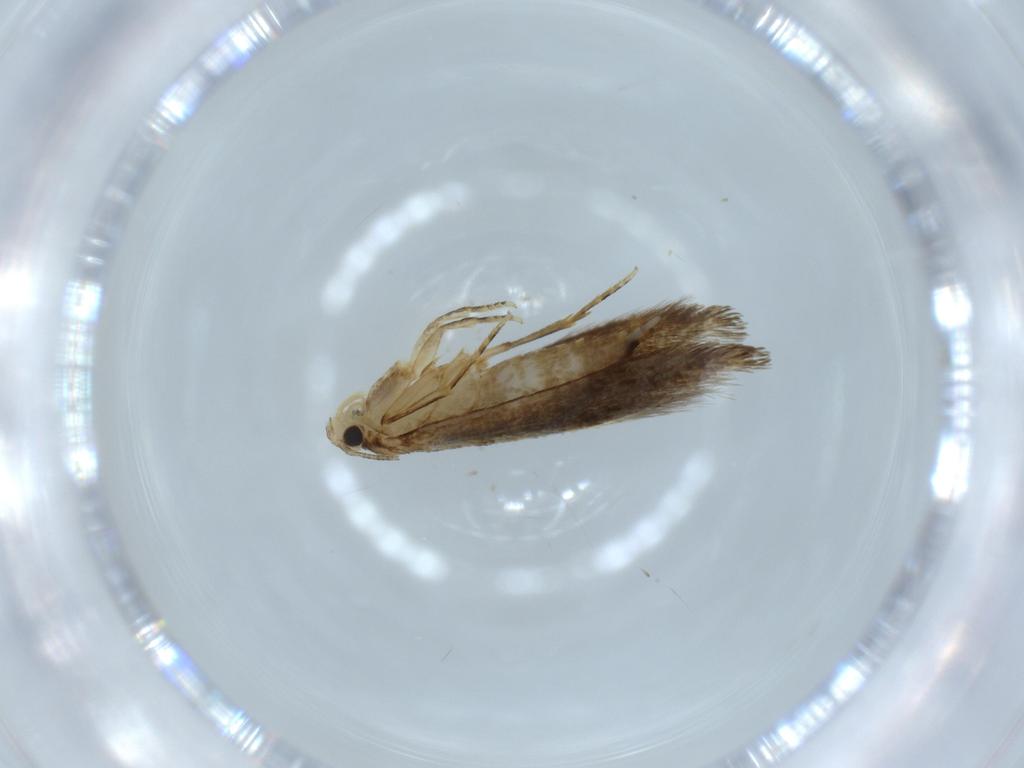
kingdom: Animalia
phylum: Arthropoda
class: Insecta
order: Lepidoptera
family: Tineidae
